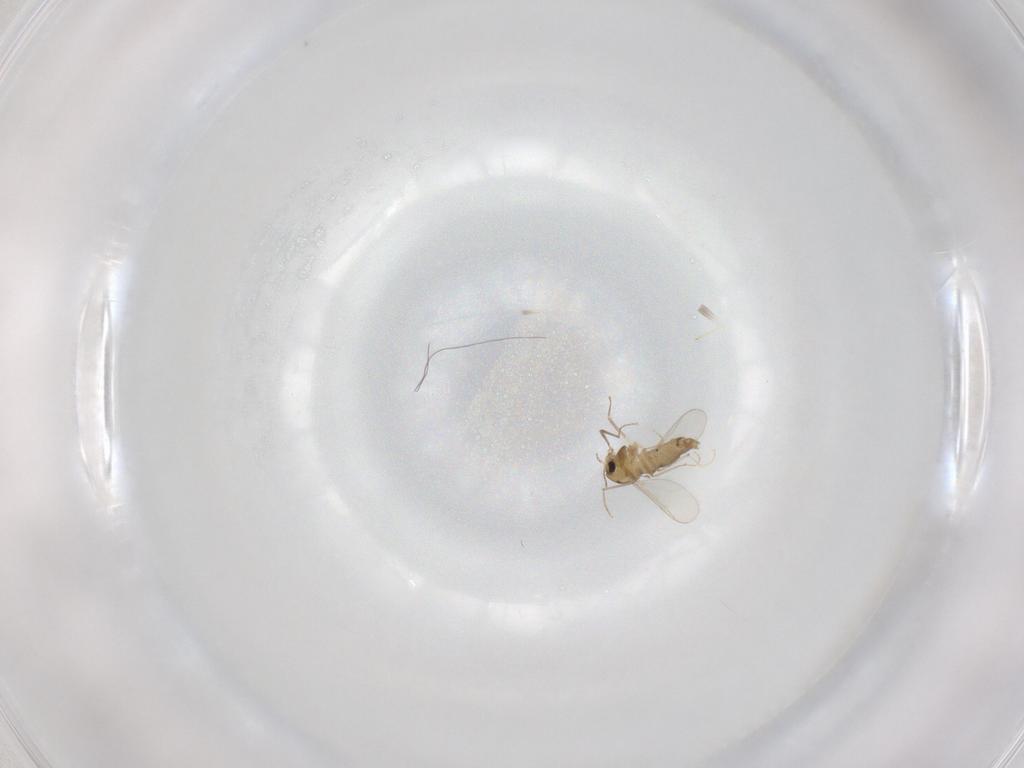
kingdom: Animalia
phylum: Arthropoda
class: Insecta
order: Diptera
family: Chironomidae
